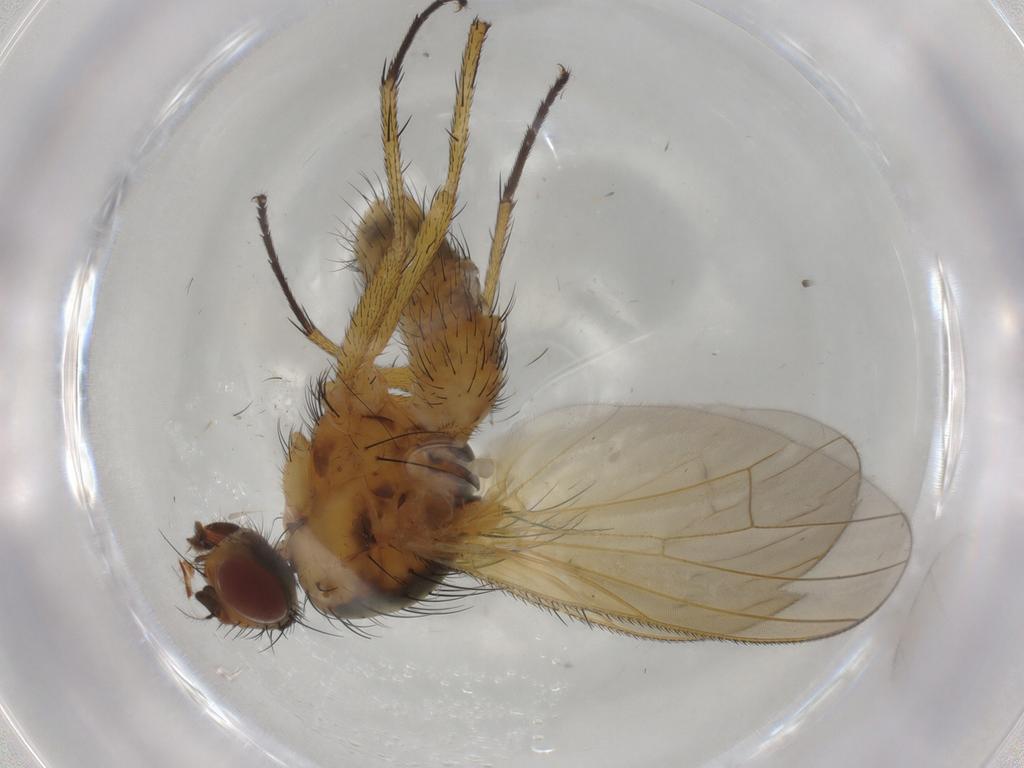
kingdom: Animalia
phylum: Arthropoda
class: Insecta
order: Diptera
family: Anthomyiidae
